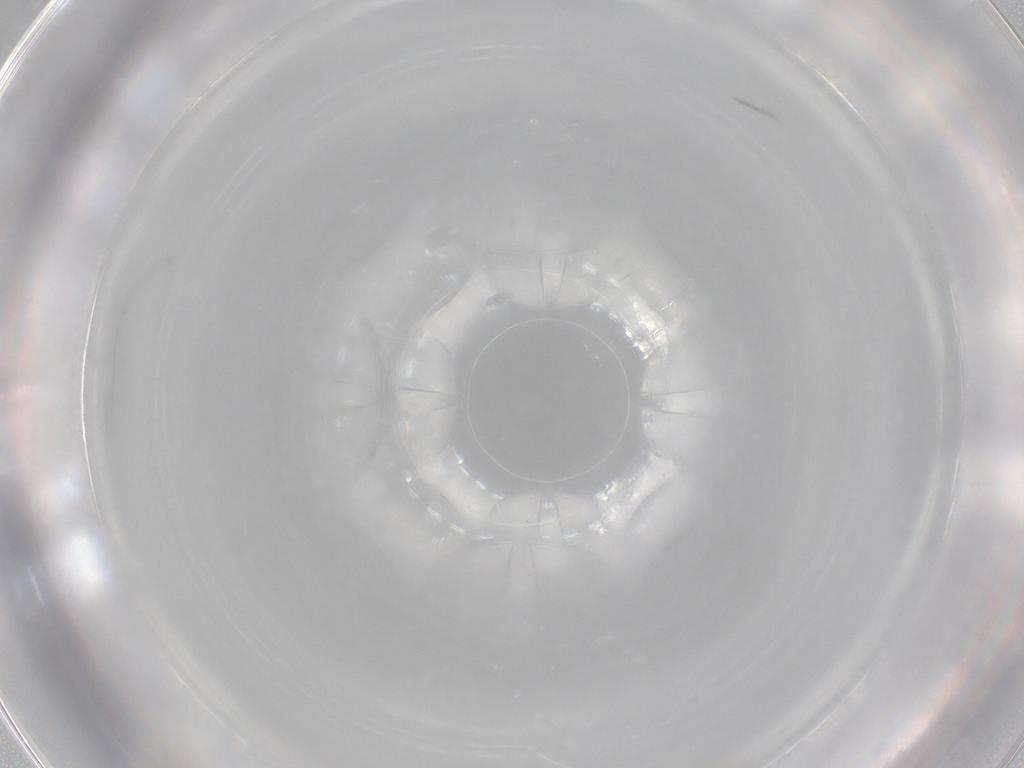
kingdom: Animalia
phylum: Arthropoda
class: Insecta
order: Diptera
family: Cecidomyiidae
